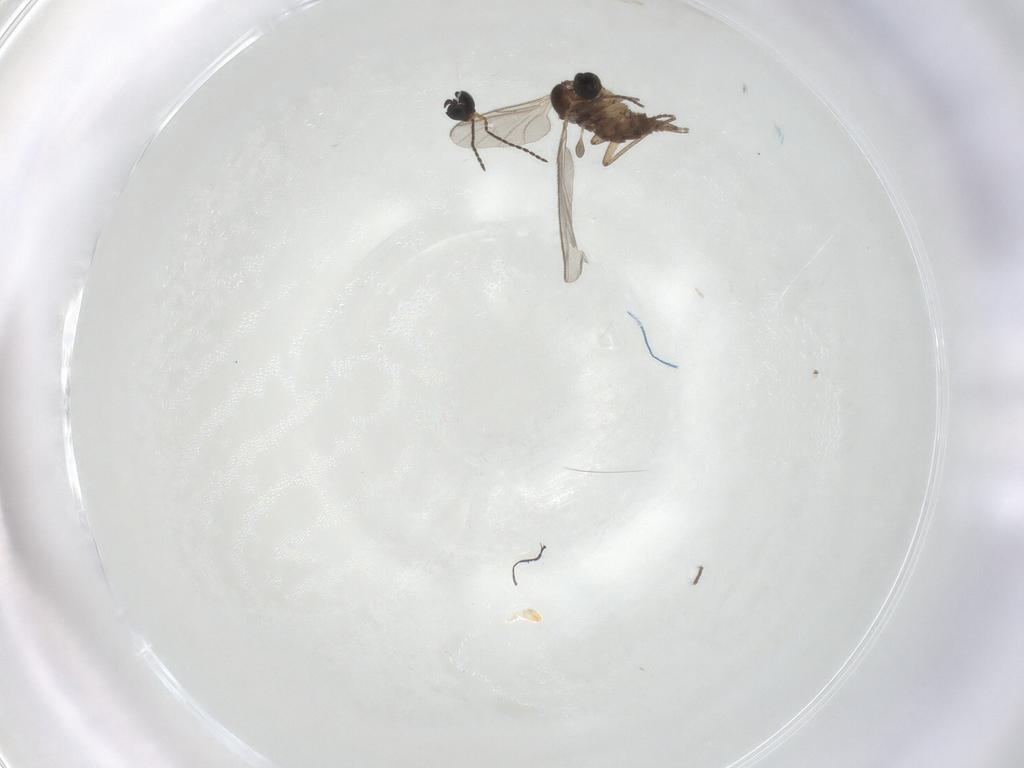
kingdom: Animalia
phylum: Arthropoda
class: Insecta
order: Hymenoptera
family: Scelionidae
